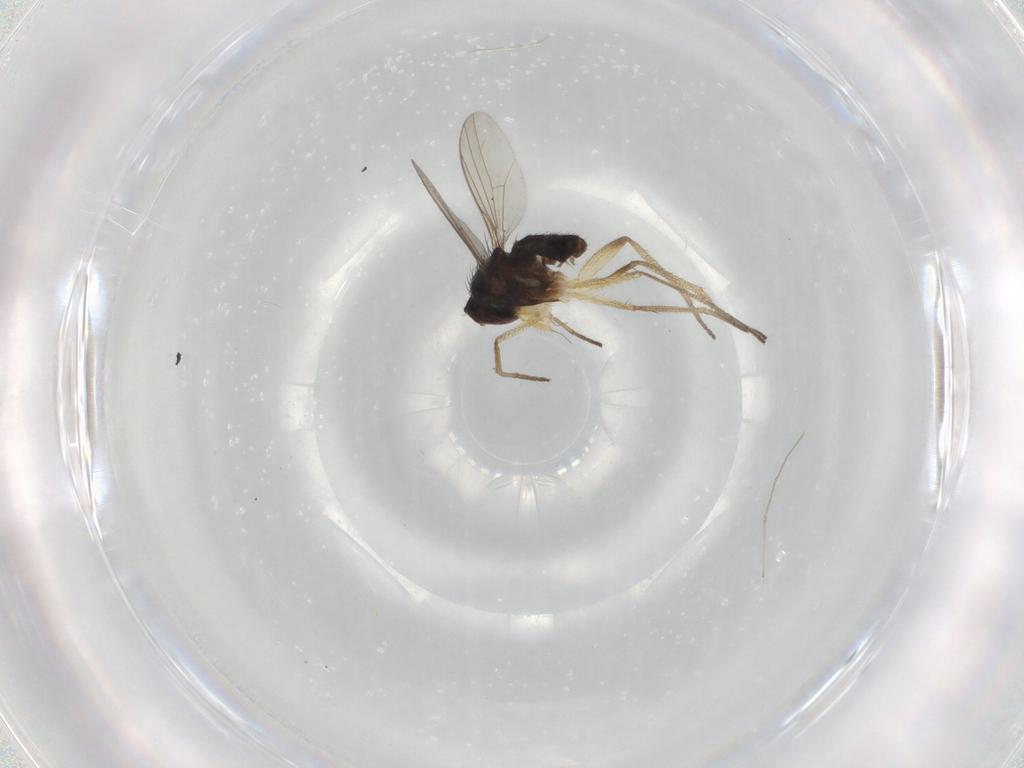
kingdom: Animalia
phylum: Arthropoda
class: Insecta
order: Diptera
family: Dolichopodidae
